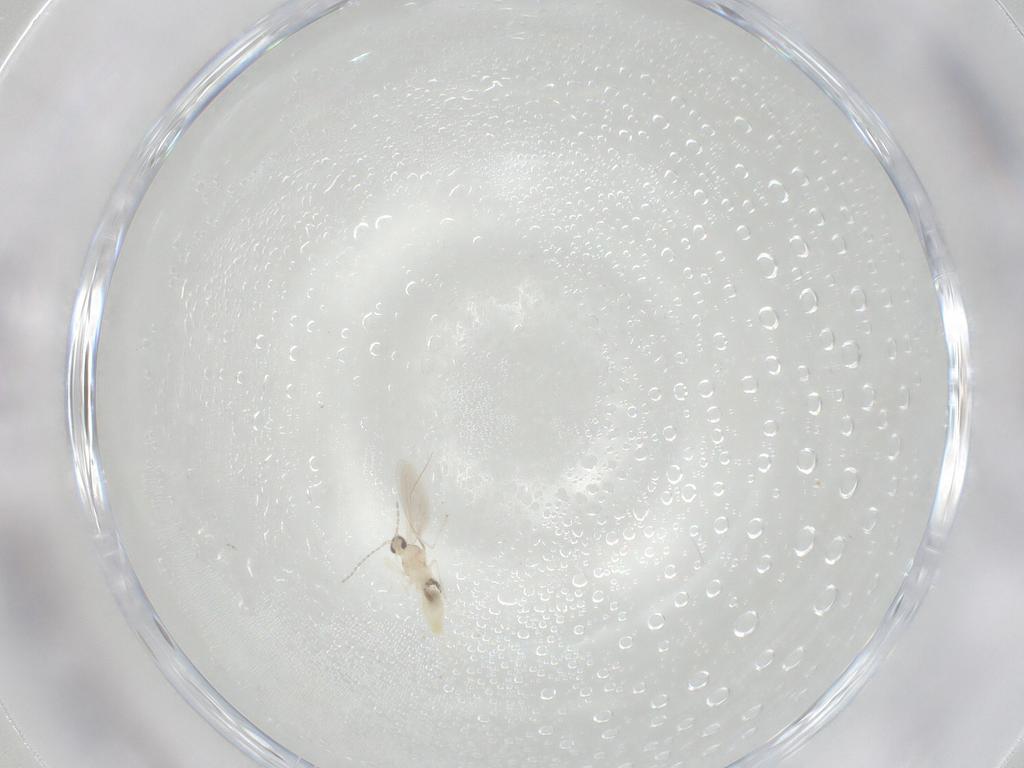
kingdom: Animalia
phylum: Arthropoda
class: Insecta
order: Diptera
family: Cecidomyiidae
